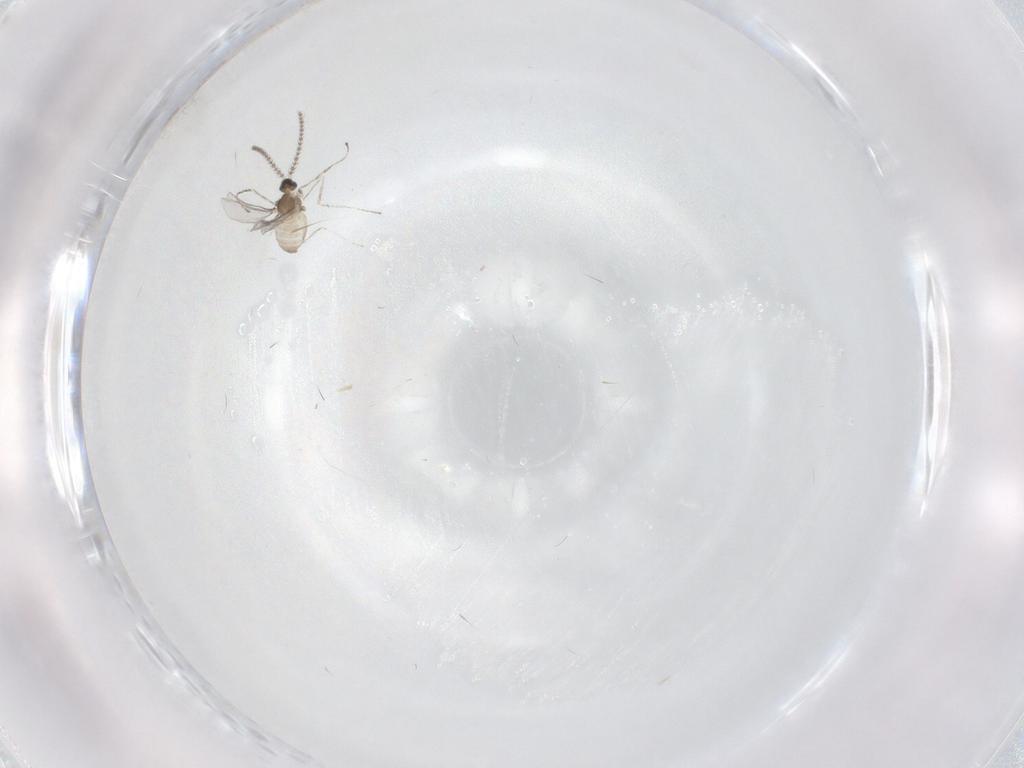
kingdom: Animalia
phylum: Arthropoda
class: Insecta
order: Diptera
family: Cecidomyiidae
